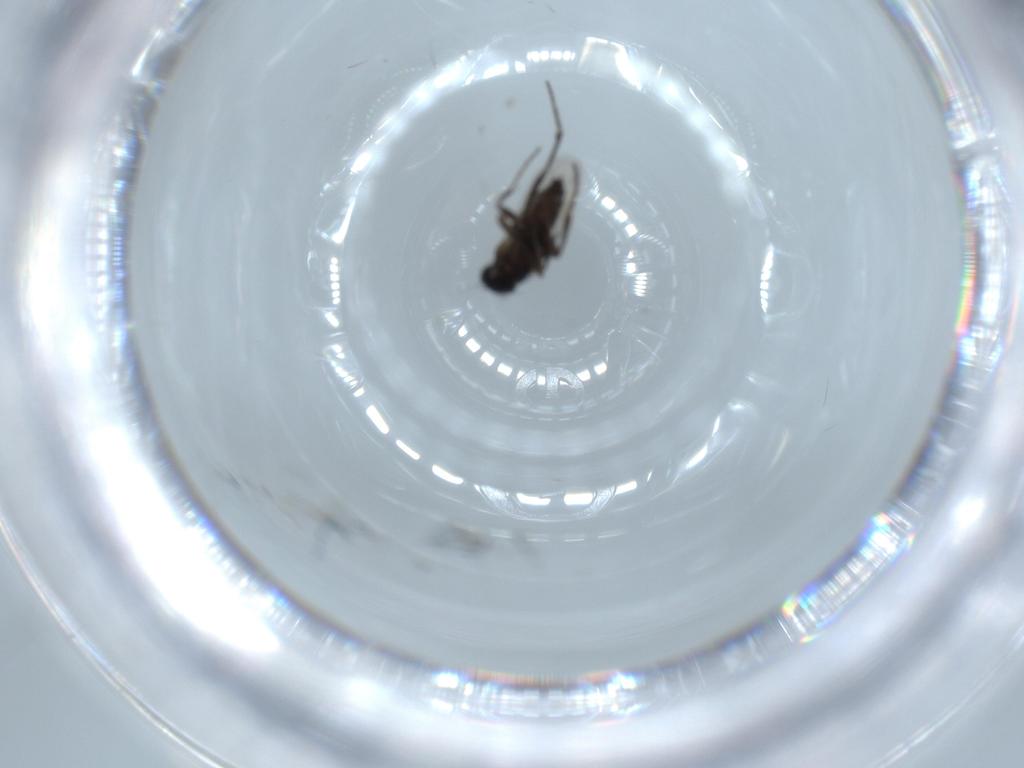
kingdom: Animalia
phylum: Arthropoda
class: Insecta
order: Diptera
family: Phoridae
